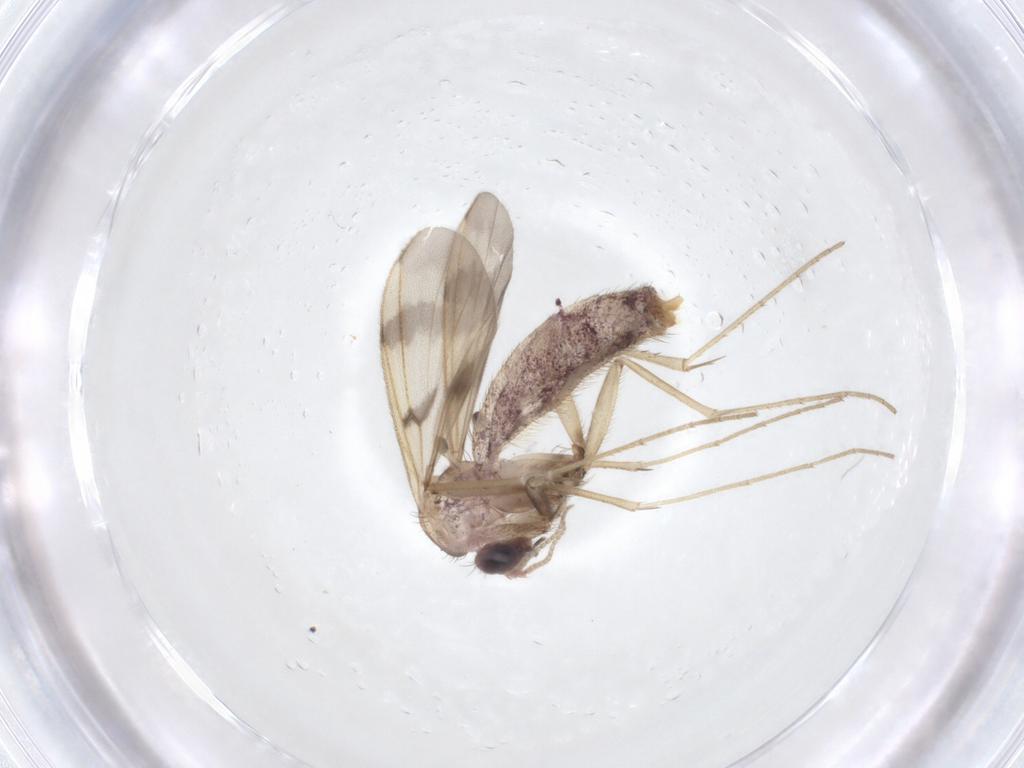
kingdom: Animalia
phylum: Arthropoda
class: Insecta
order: Diptera
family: Mycetophilidae
